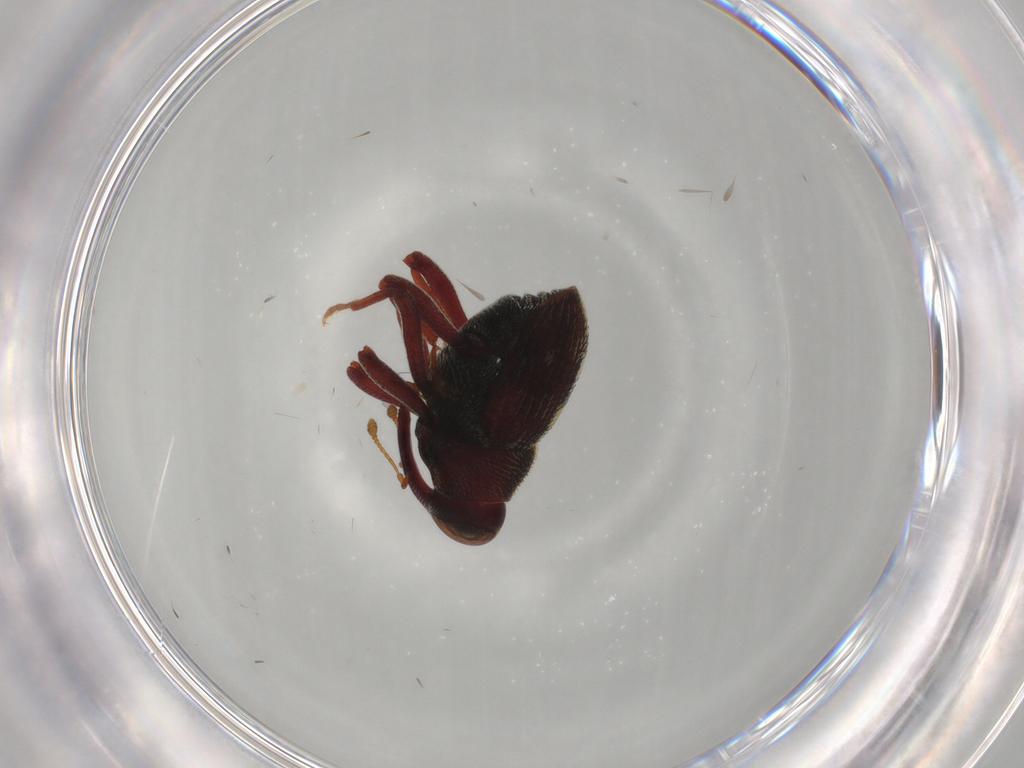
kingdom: Animalia
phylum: Arthropoda
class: Insecta
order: Coleoptera
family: Curculionidae
